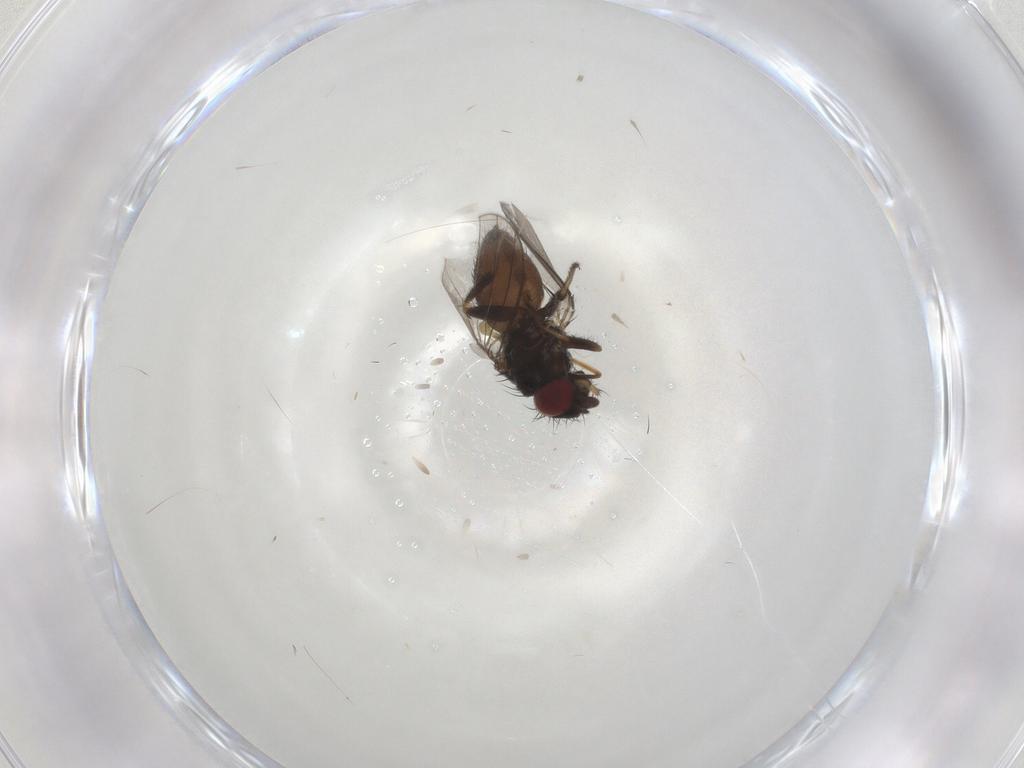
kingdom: Animalia
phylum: Arthropoda
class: Insecta
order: Diptera
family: Milichiidae
